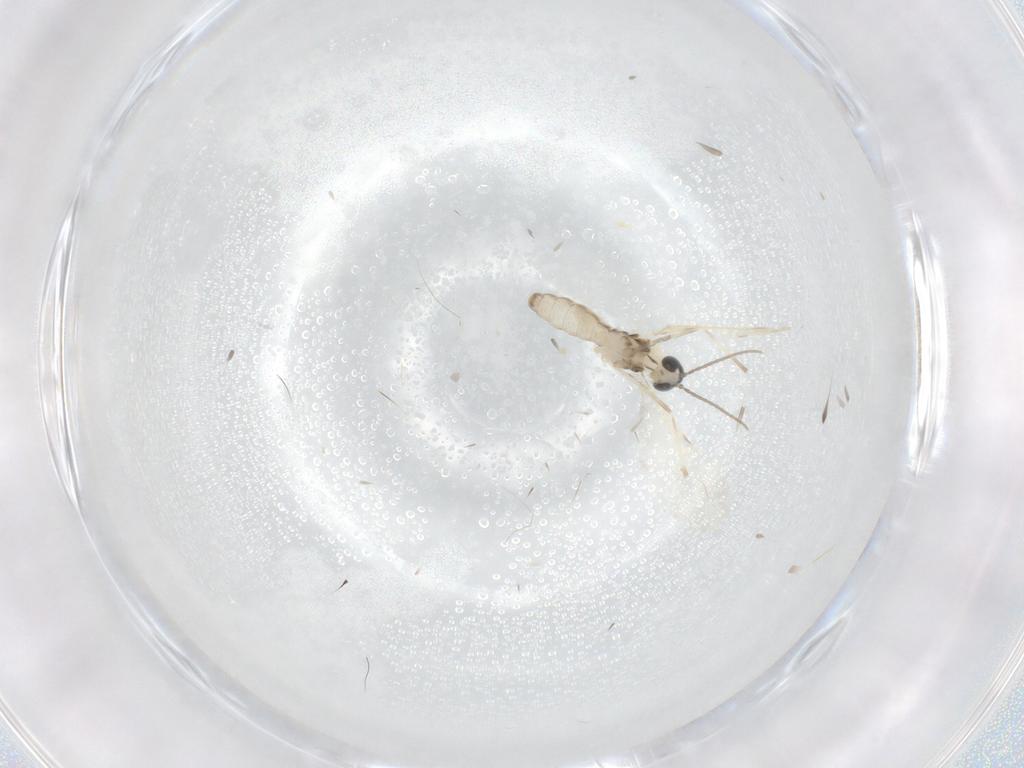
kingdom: Animalia
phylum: Arthropoda
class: Insecta
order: Diptera
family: Cecidomyiidae
